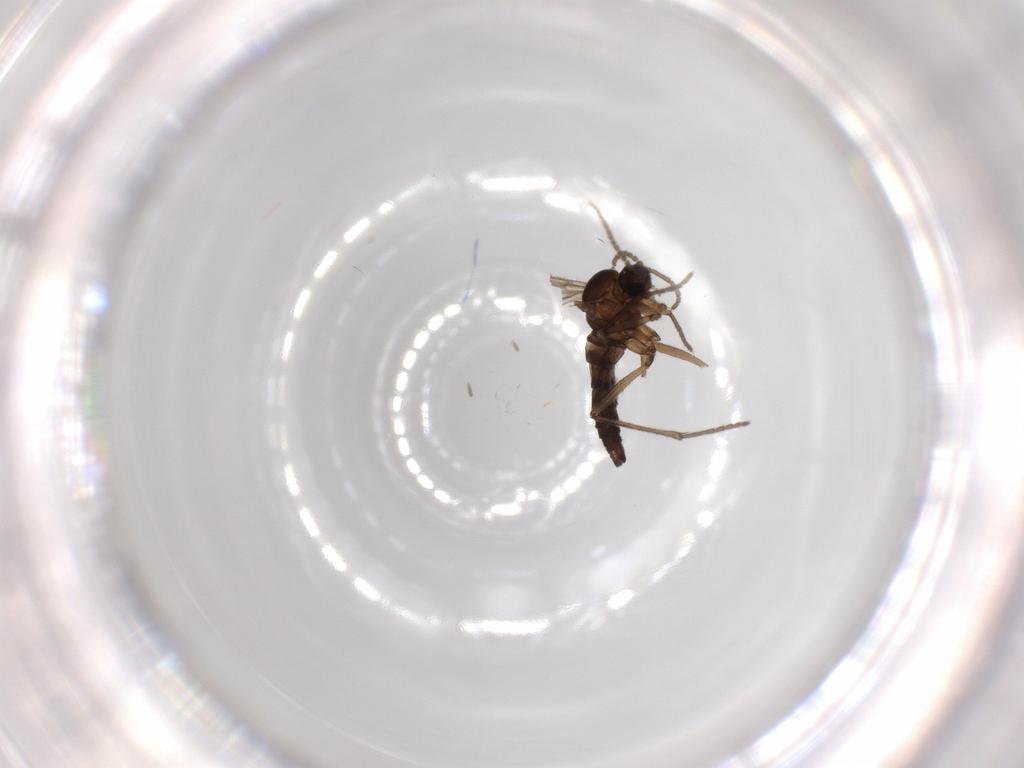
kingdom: Animalia
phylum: Arthropoda
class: Insecta
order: Diptera
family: Sciaridae
